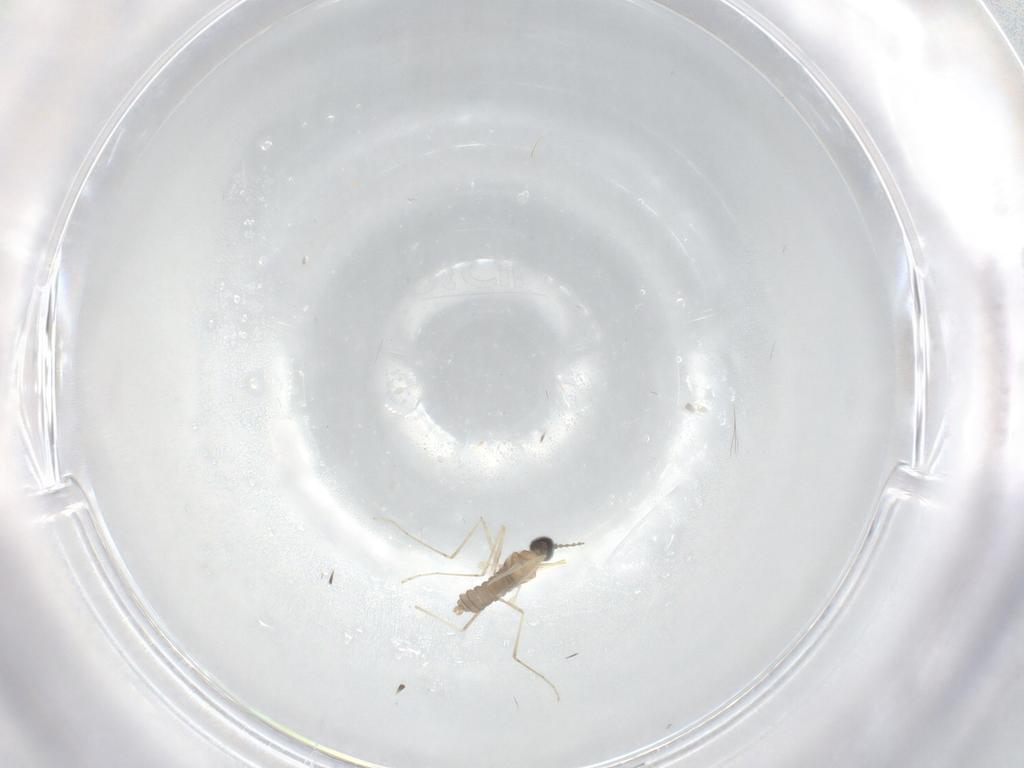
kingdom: Animalia
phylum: Arthropoda
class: Insecta
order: Diptera
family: Cecidomyiidae
